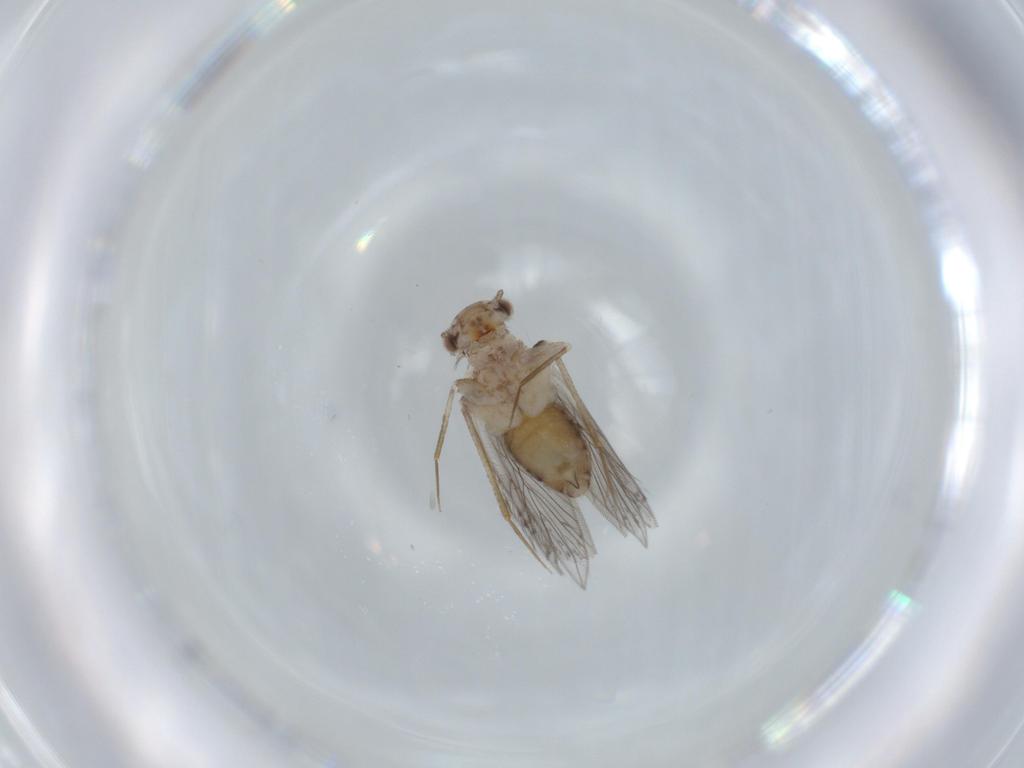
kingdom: Animalia
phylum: Arthropoda
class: Insecta
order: Psocodea
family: Lepidopsocidae
